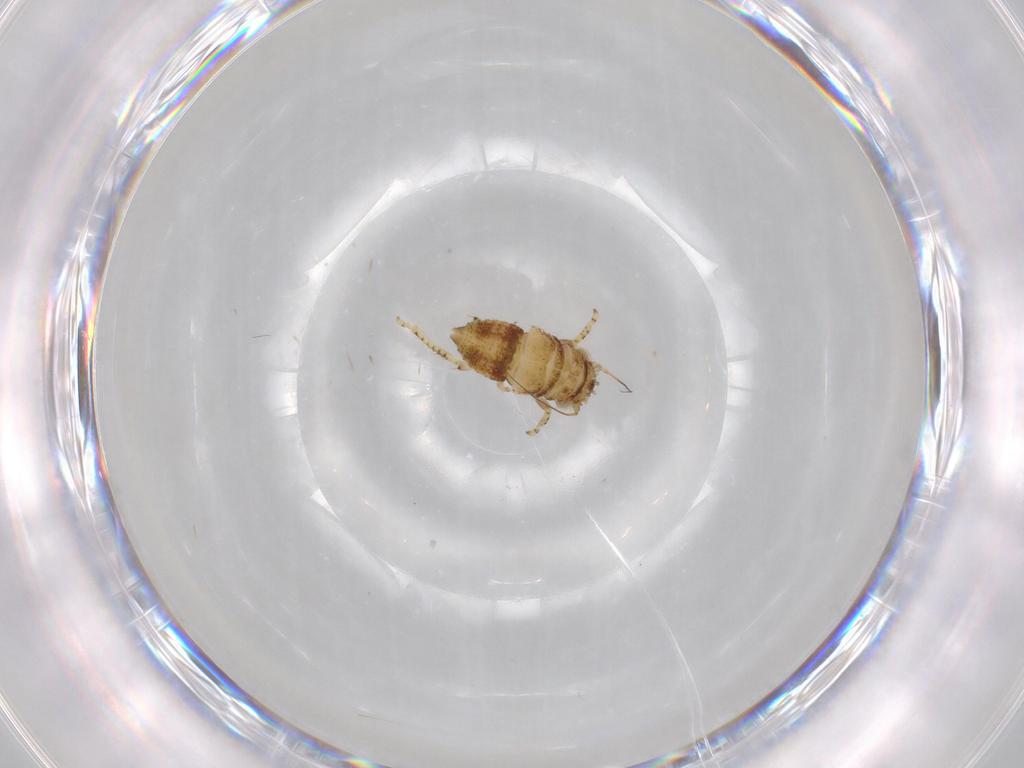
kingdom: Animalia
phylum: Arthropoda
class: Insecta
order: Hemiptera
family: Cicadellidae
